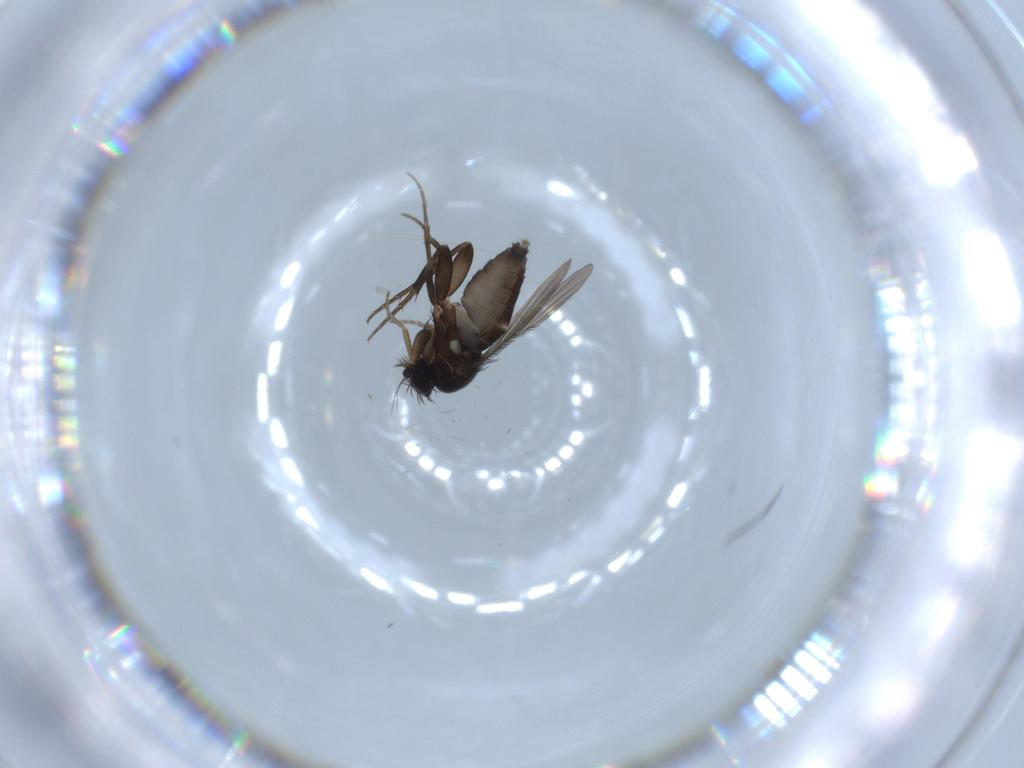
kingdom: Animalia
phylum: Arthropoda
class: Insecta
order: Diptera
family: Phoridae
